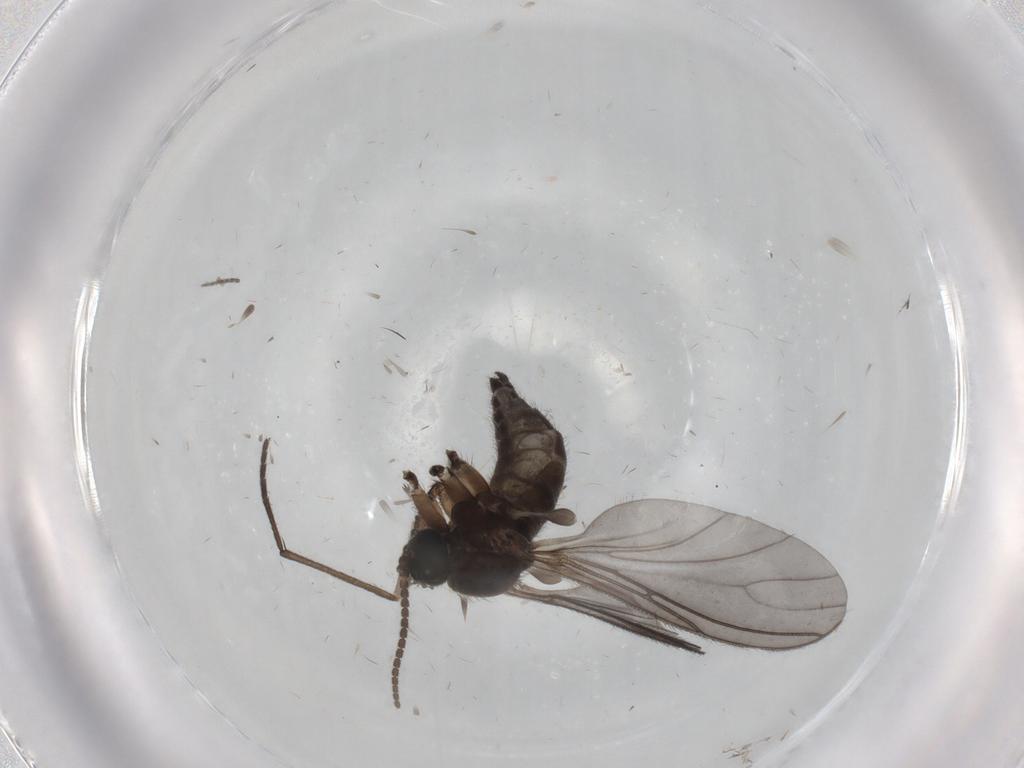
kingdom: Animalia
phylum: Arthropoda
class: Insecta
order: Diptera
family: Sciaridae
